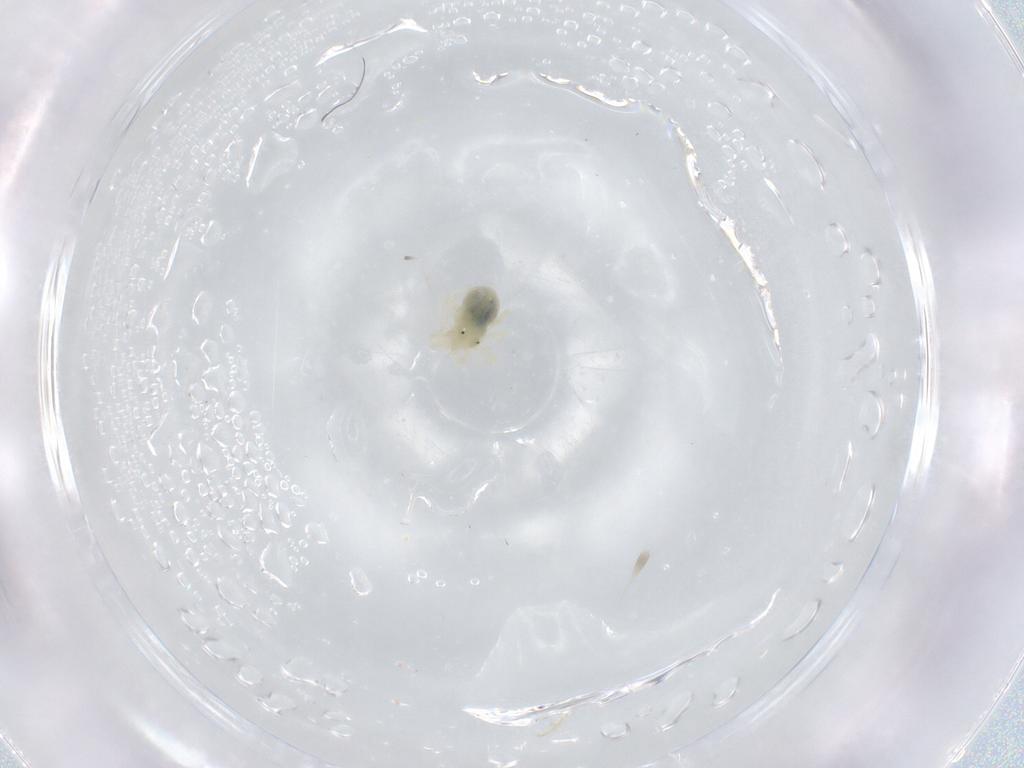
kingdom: Animalia
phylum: Arthropoda
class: Arachnida
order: Trombidiformes
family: Eupodidae
